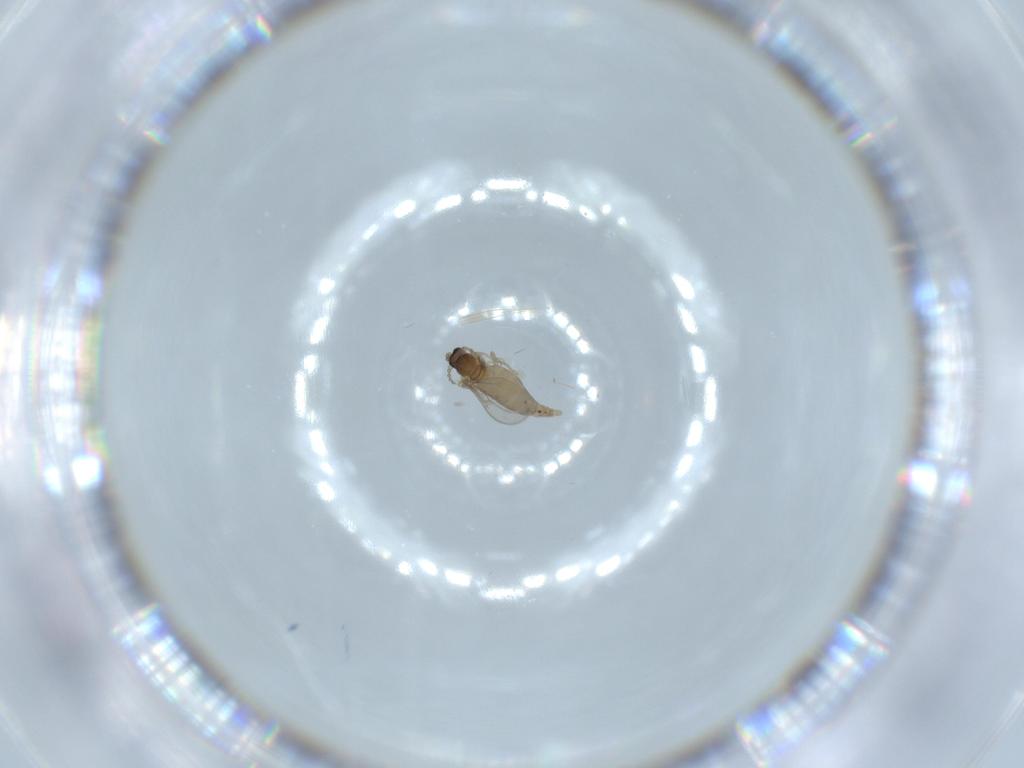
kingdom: Animalia
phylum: Arthropoda
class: Insecta
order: Diptera
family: Cecidomyiidae
